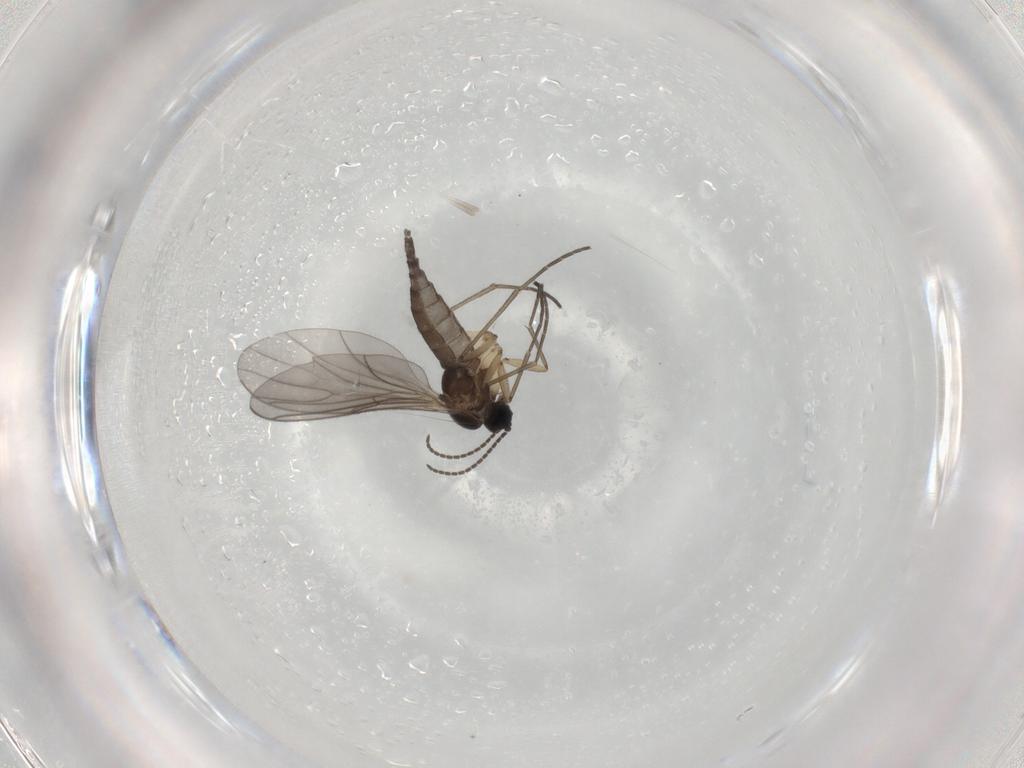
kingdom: Animalia
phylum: Arthropoda
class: Insecta
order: Diptera
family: Sciaridae
